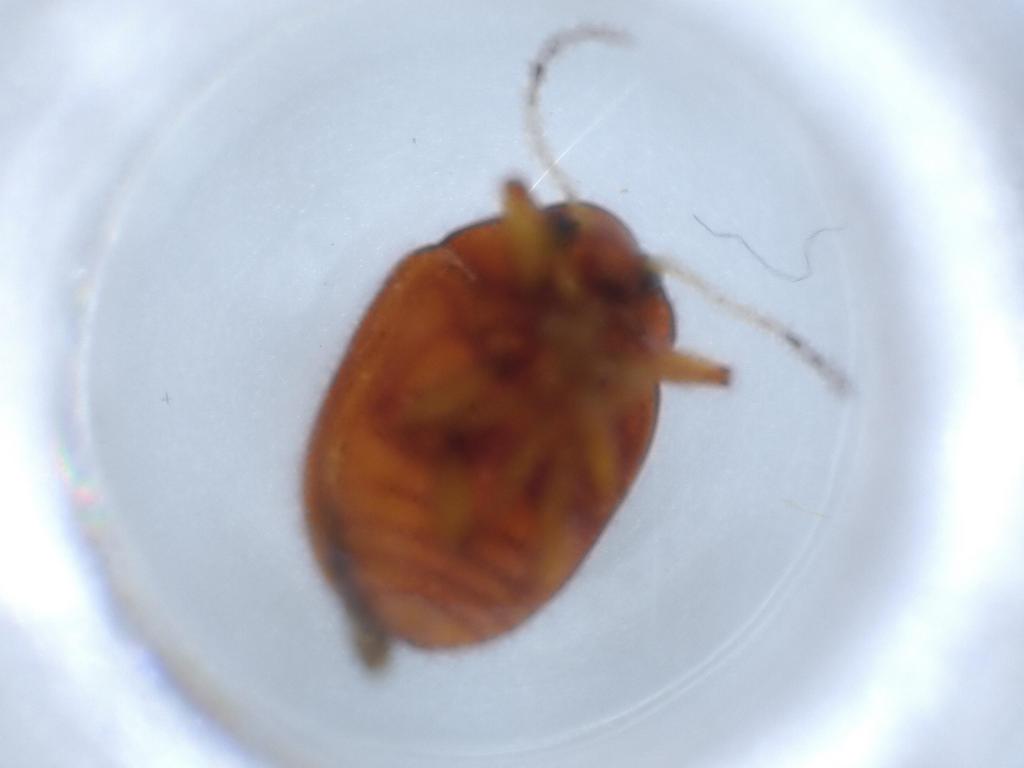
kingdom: Animalia
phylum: Arthropoda
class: Insecta
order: Coleoptera
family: Chrysomelidae
